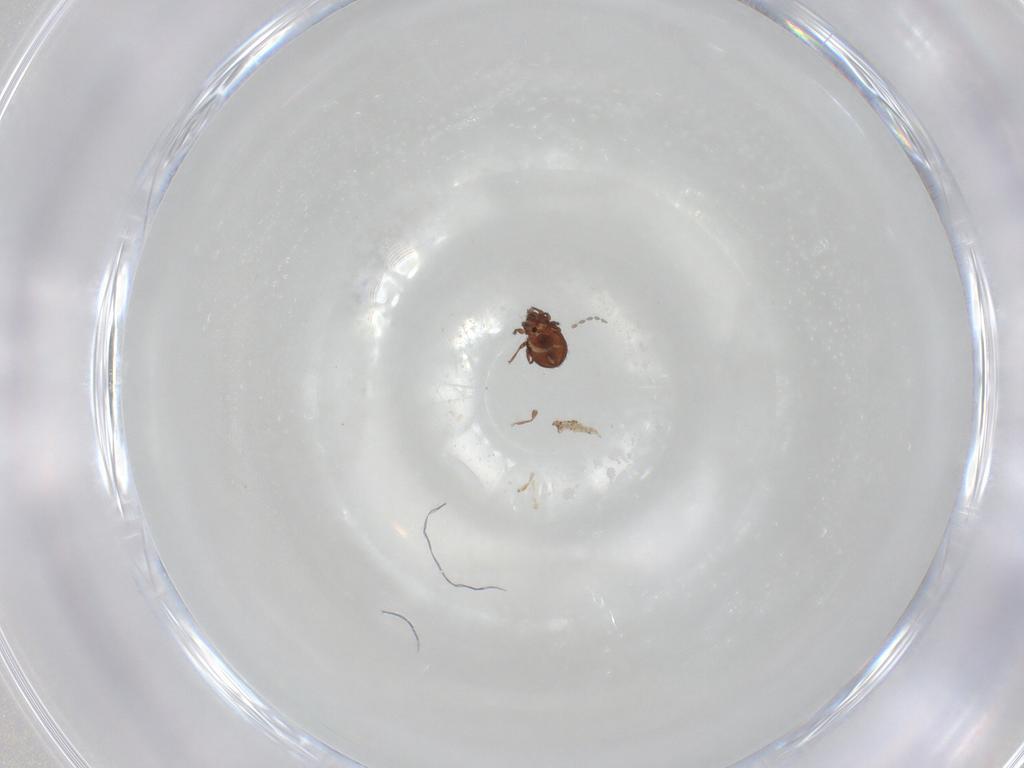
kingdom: Animalia
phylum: Arthropoda
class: Arachnida
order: Sarcoptiformes
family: Scheloribatidae
